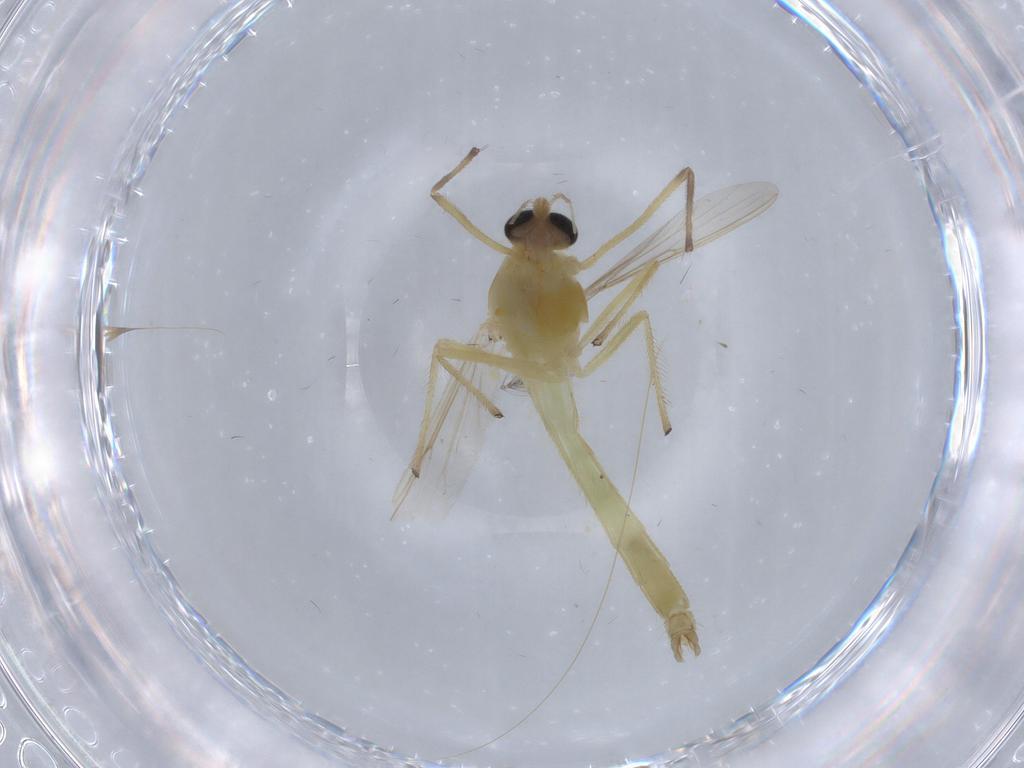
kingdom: Animalia
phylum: Arthropoda
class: Insecta
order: Diptera
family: Cecidomyiidae
